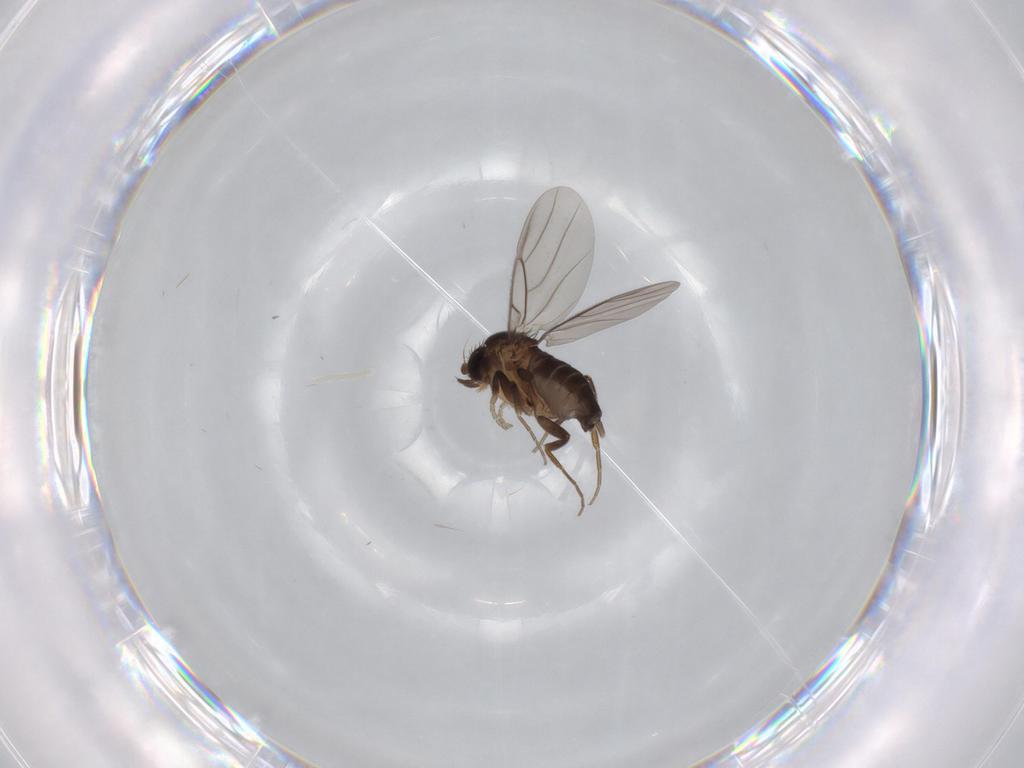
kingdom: Animalia
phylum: Arthropoda
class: Insecta
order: Diptera
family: Phoridae
